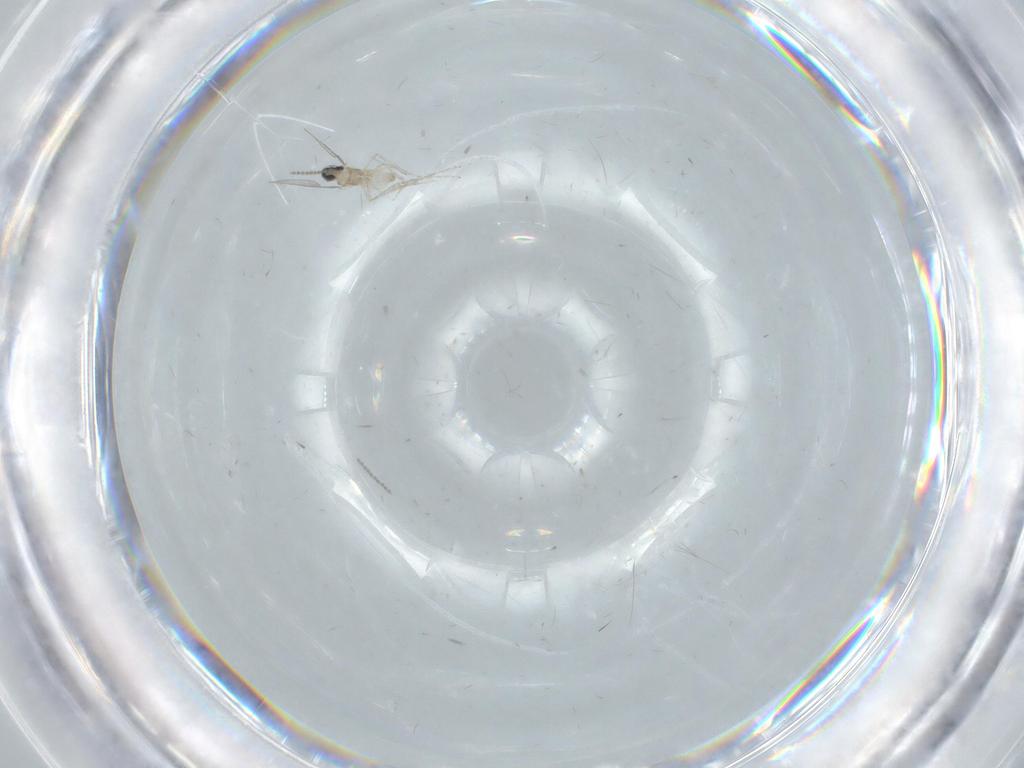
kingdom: Animalia
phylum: Arthropoda
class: Insecta
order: Diptera
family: Cecidomyiidae
